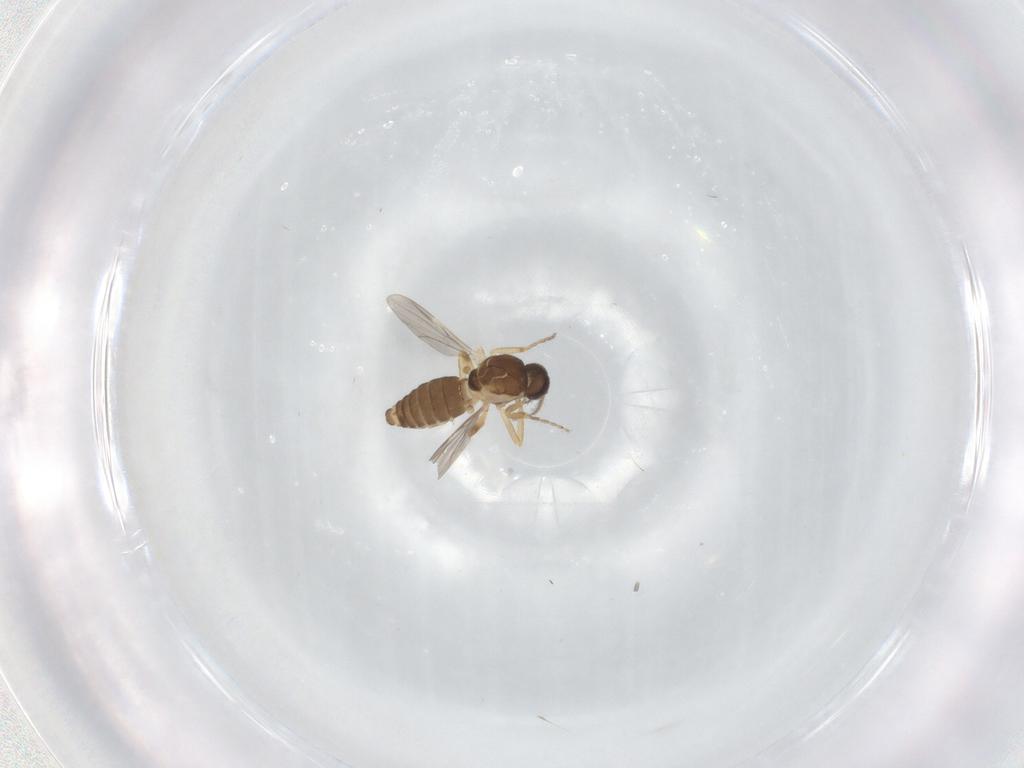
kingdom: Animalia
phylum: Arthropoda
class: Insecta
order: Diptera
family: Ceratopogonidae
